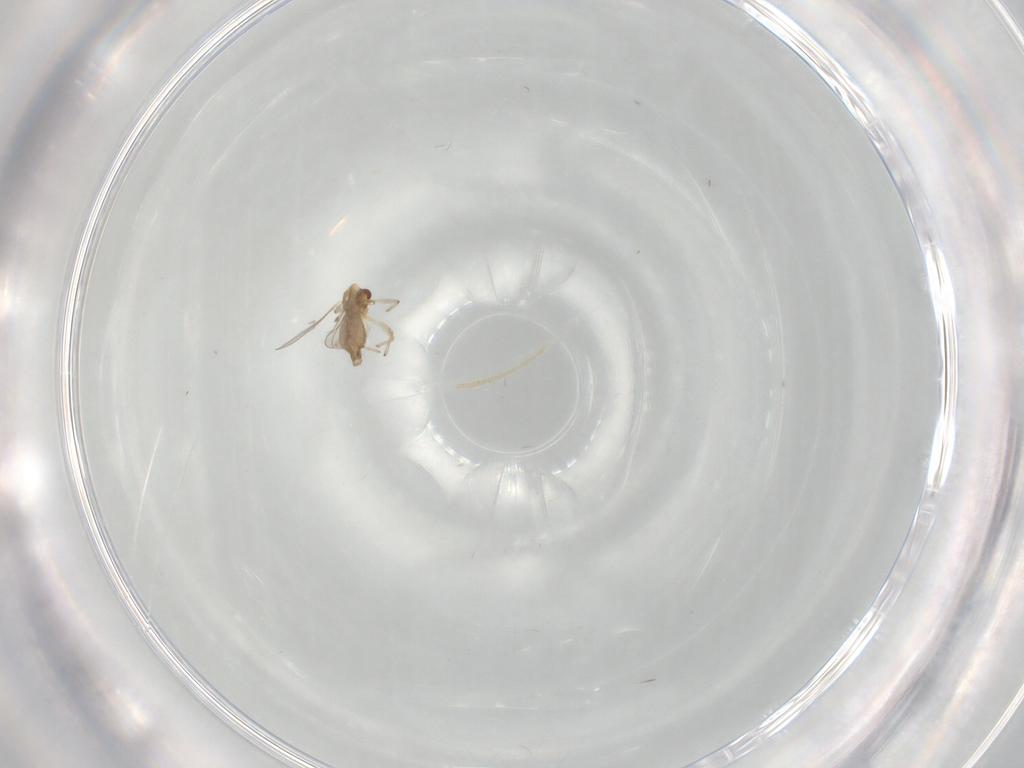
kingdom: Animalia
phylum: Arthropoda
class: Insecta
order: Diptera
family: Chironomidae
